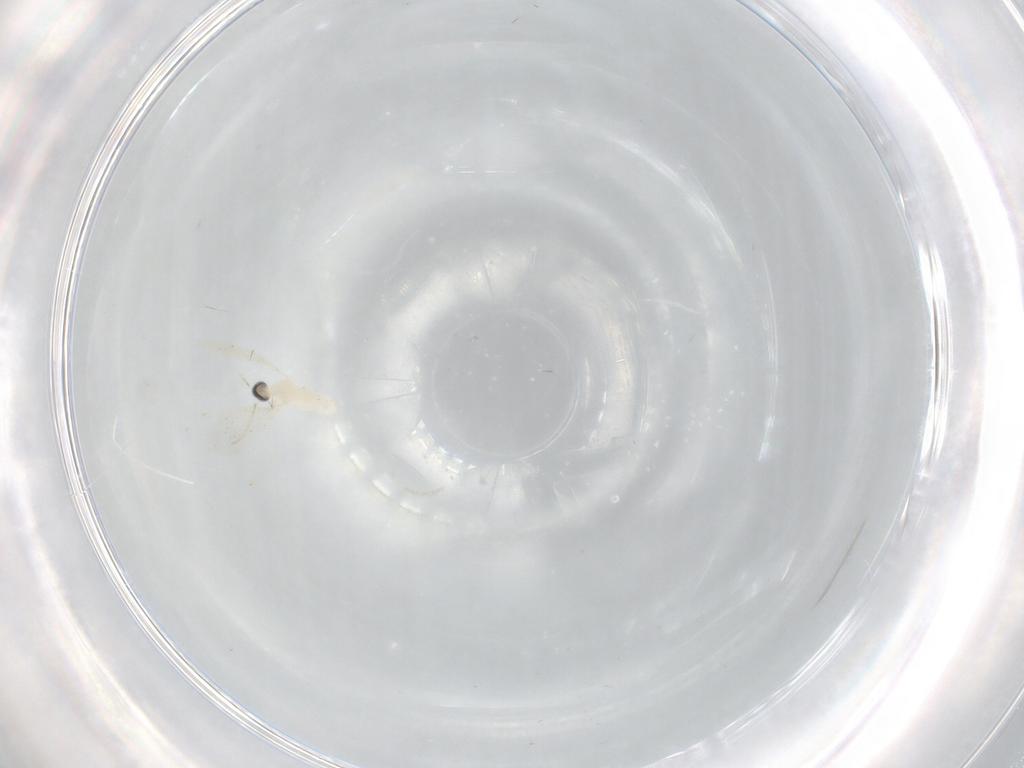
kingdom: Animalia
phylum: Arthropoda
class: Insecta
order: Diptera
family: Cecidomyiidae
